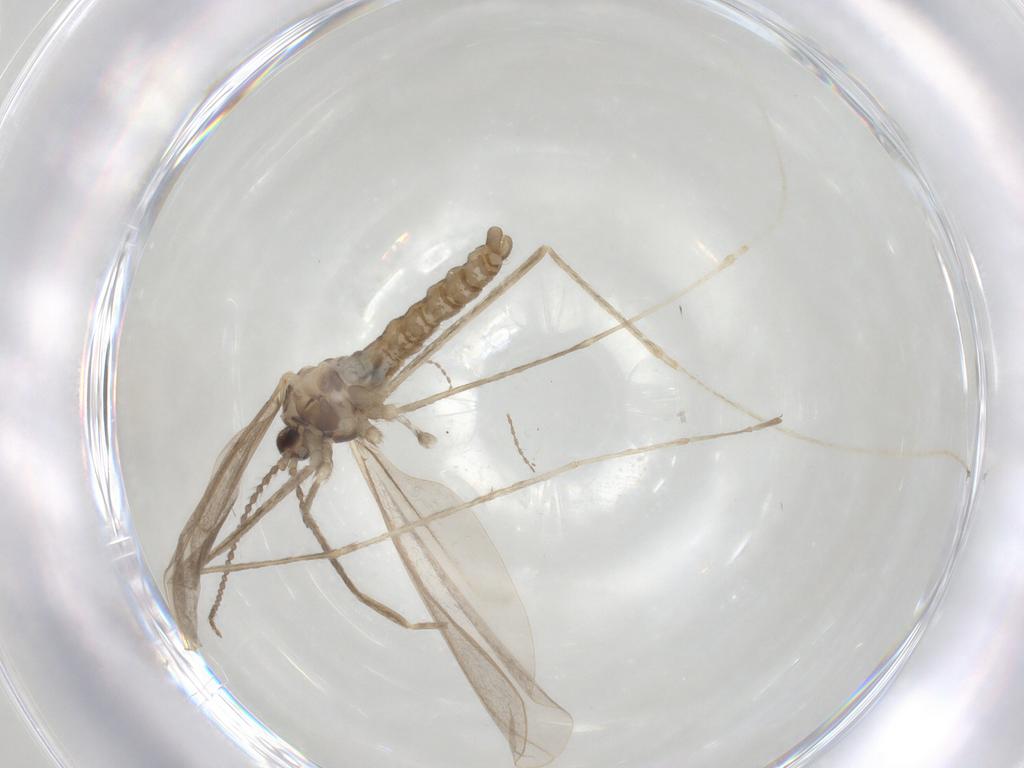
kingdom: Animalia
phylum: Arthropoda
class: Insecta
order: Diptera
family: Cecidomyiidae
